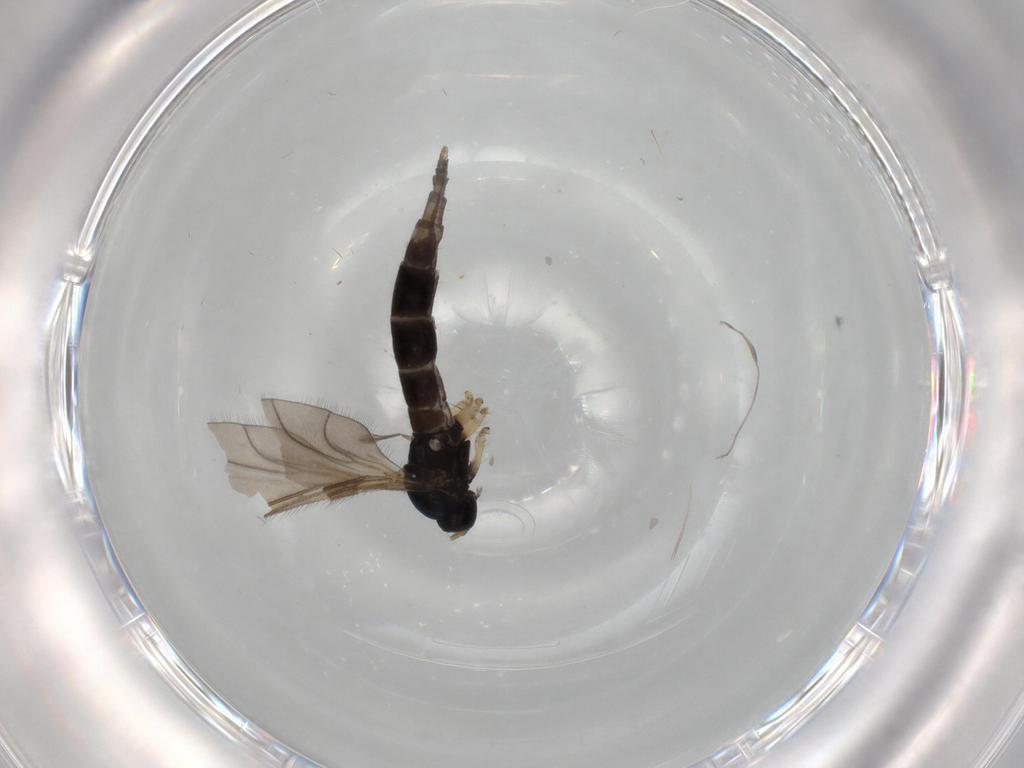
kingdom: Animalia
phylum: Arthropoda
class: Insecta
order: Diptera
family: Sciaridae
